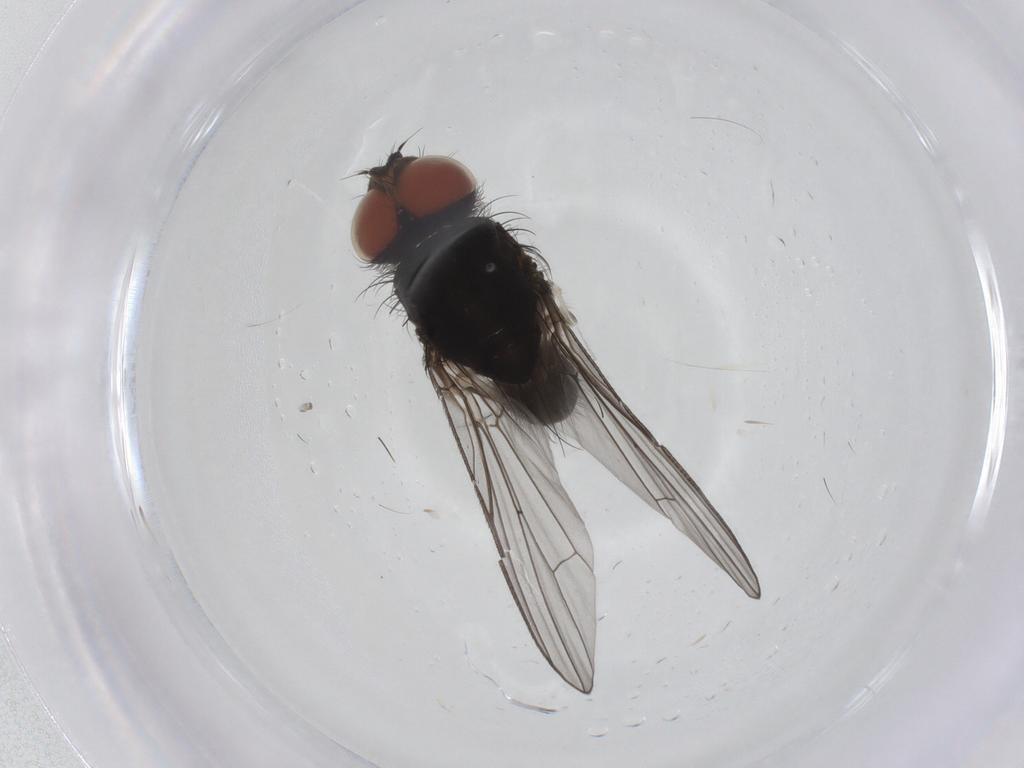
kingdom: Animalia
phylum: Arthropoda
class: Insecta
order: Diptera
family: Anthomyiidae
